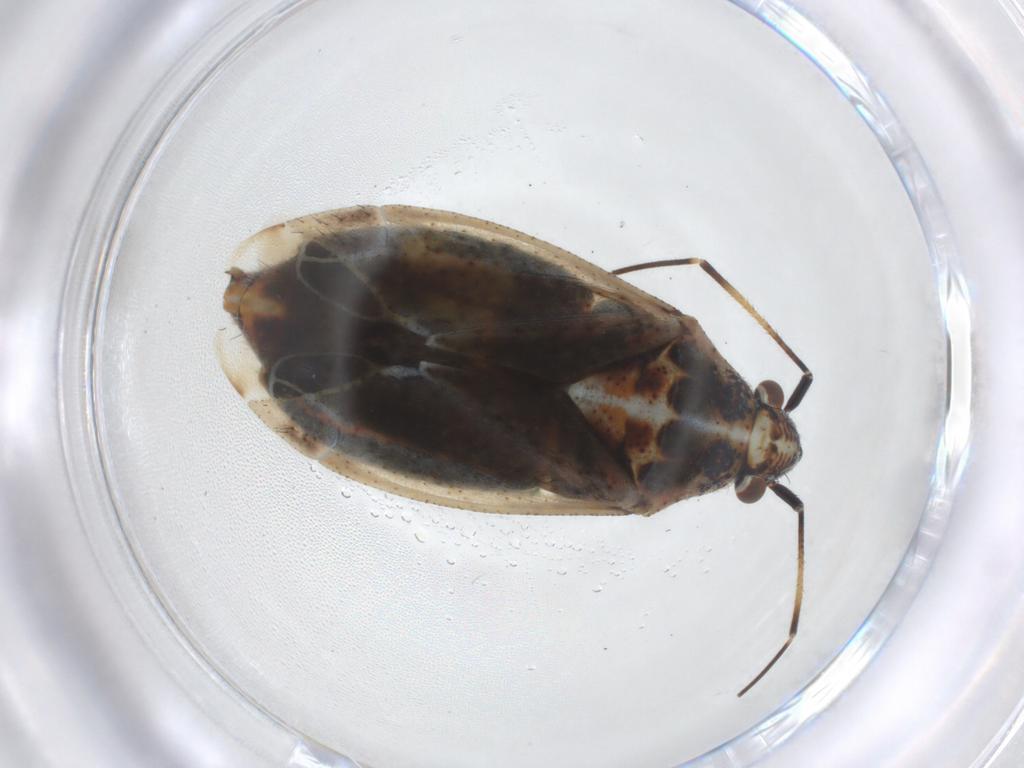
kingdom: Animalia
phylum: Arthropoda
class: Insecta
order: Hemiptera
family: Miridae
